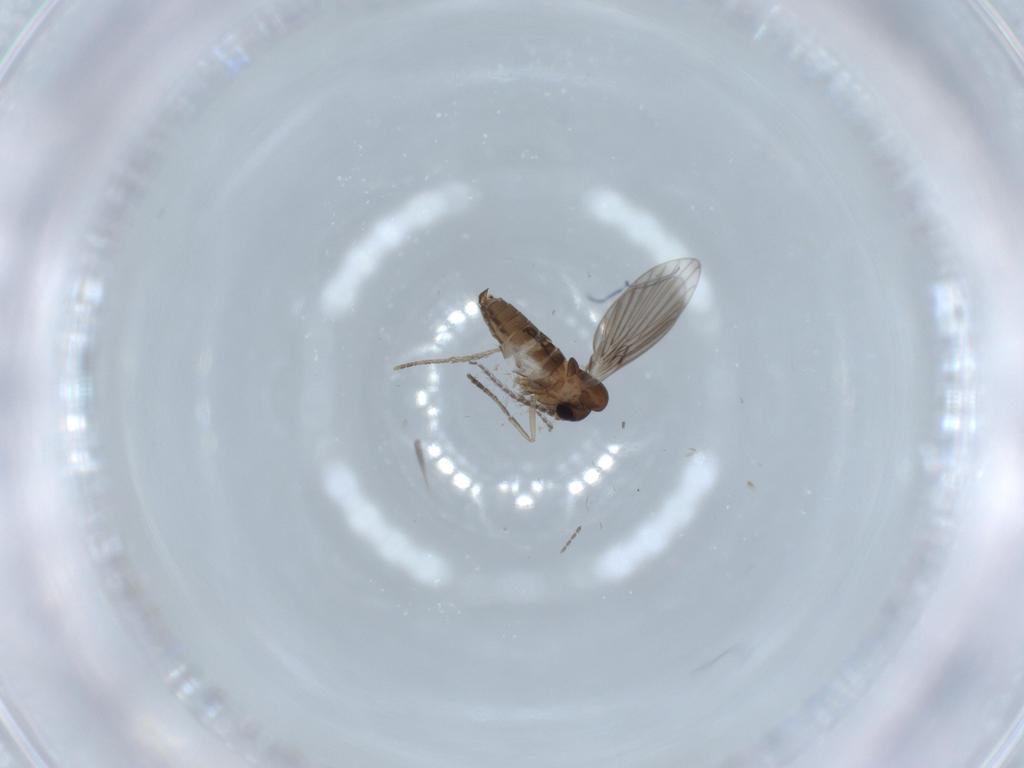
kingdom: Animalia
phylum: Arthropoda
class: Insecta
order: Diptera
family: Psychodidae
